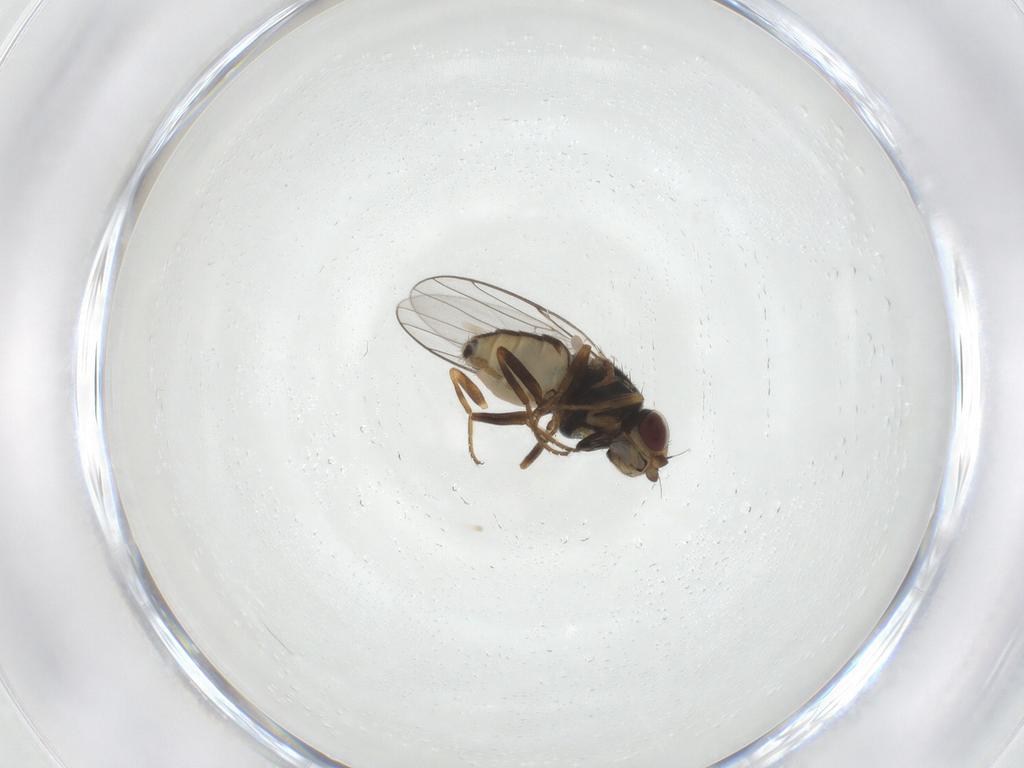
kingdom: Animalia
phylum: Arthropoda
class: Insecta
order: Diptera
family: Chloropidae
